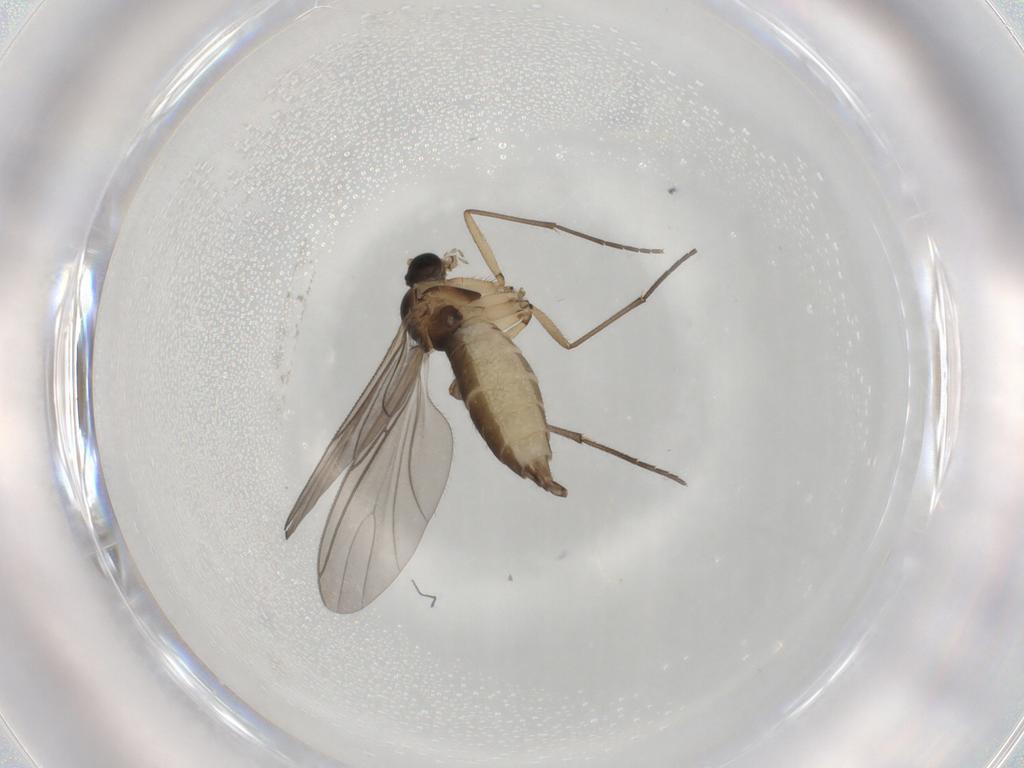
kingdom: Animalia
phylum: Arthropoda
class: Insecta
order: Diptera
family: Sciaridae
